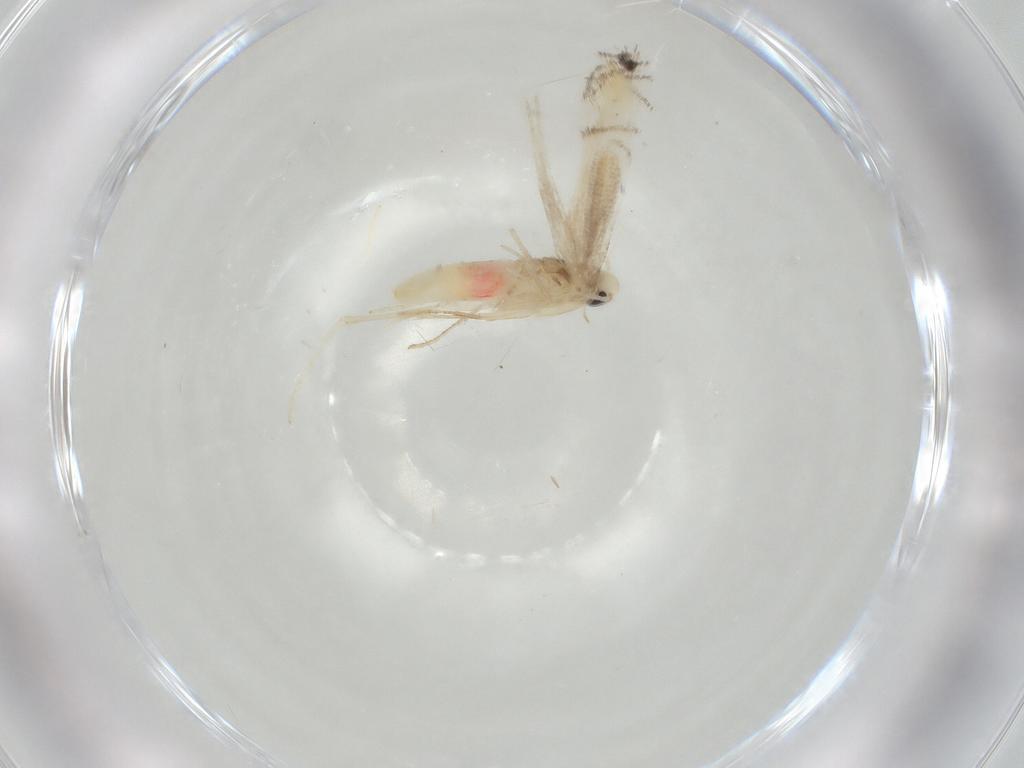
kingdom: Animalia
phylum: Arthropoda
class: Insecta
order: Lepidoptera
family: Gracillariidae
